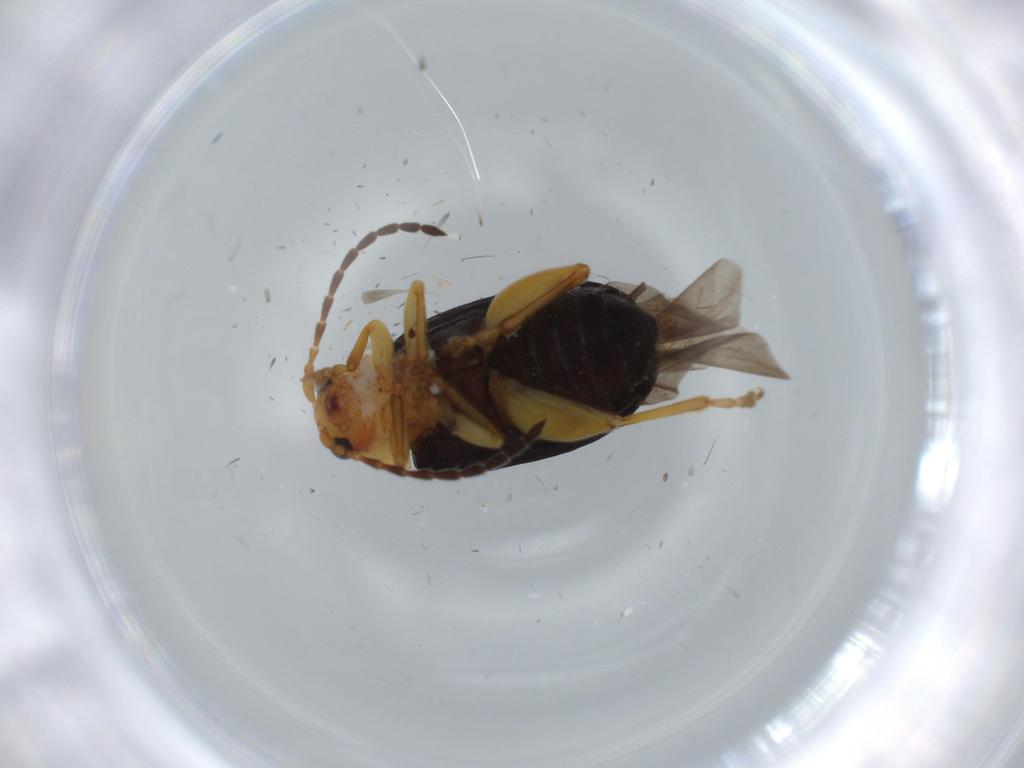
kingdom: Animalia
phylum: Arthropoda
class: Insecta
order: Coleoptera
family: Chrysomelidae
